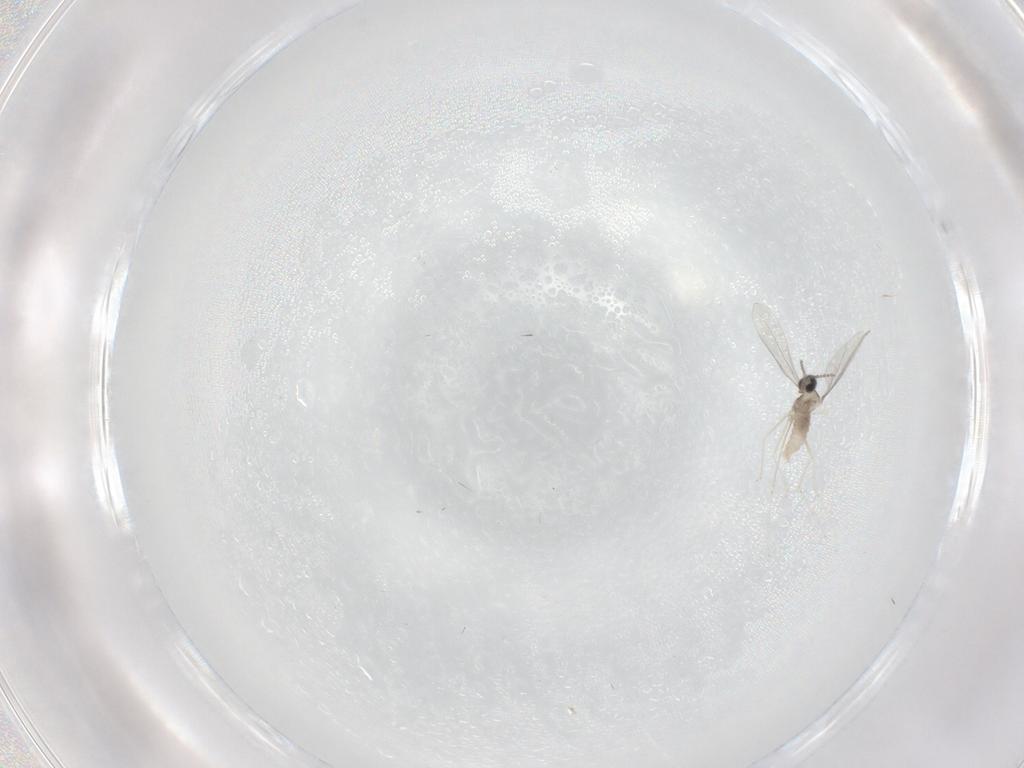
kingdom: Animalia
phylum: Arthropoda
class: Insecta
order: Diptera
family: Cecidomyiidae
